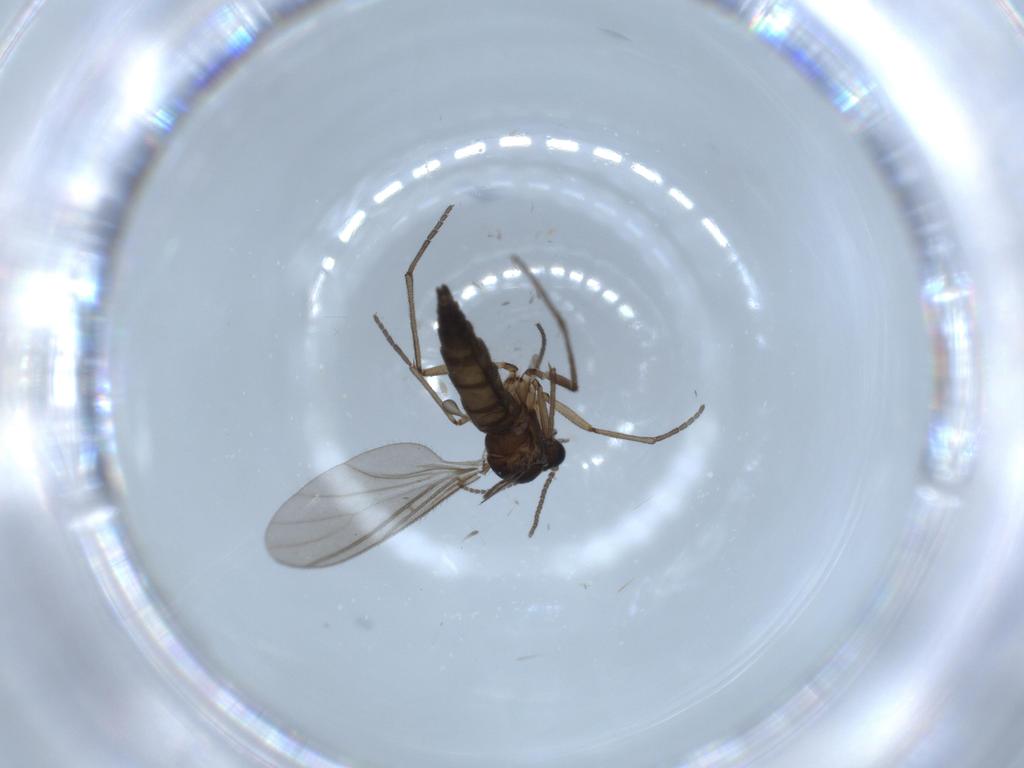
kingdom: Animalia
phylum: Arthropoda
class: Insecta
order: Diptera
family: Sciaridae
